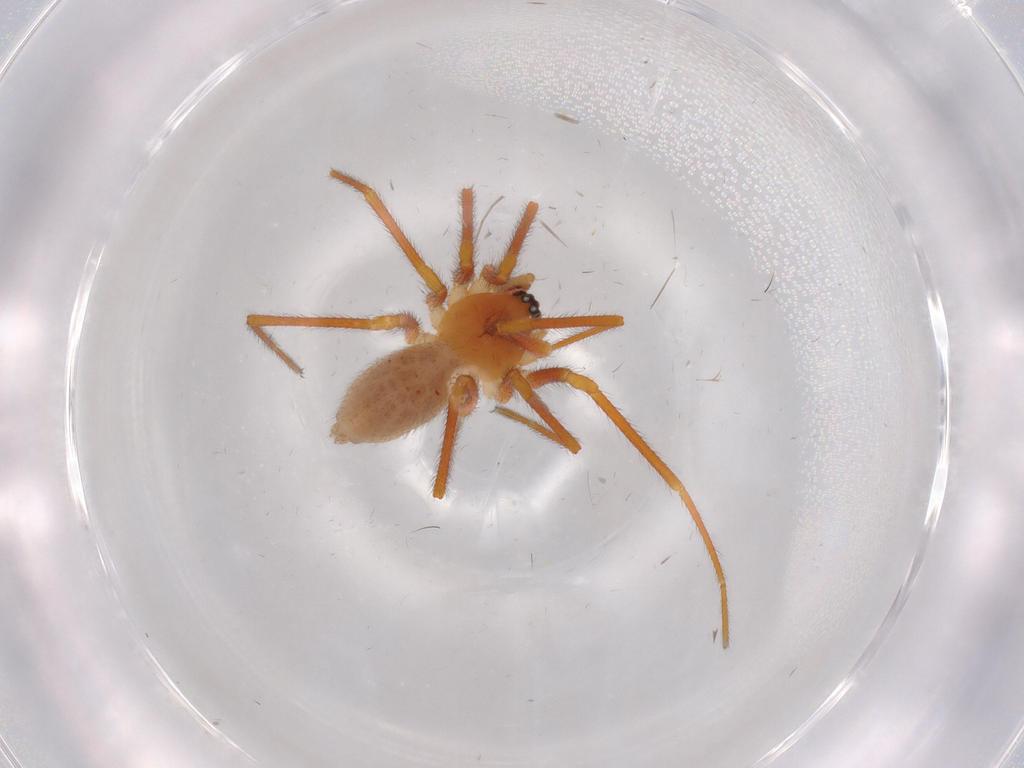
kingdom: Animalia
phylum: Arthropoda
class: Arachnida
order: Araneae
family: Linyphiidae
